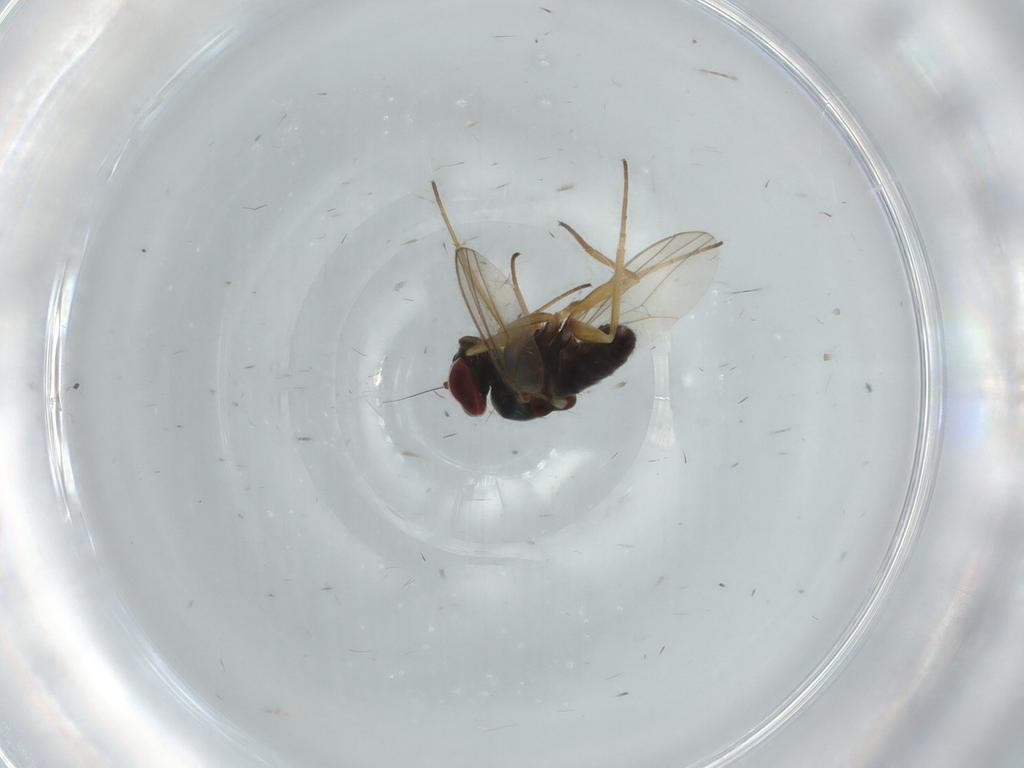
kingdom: Animalia
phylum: Arthropoda
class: Insecta
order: Diptera
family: Dolichopodidae
